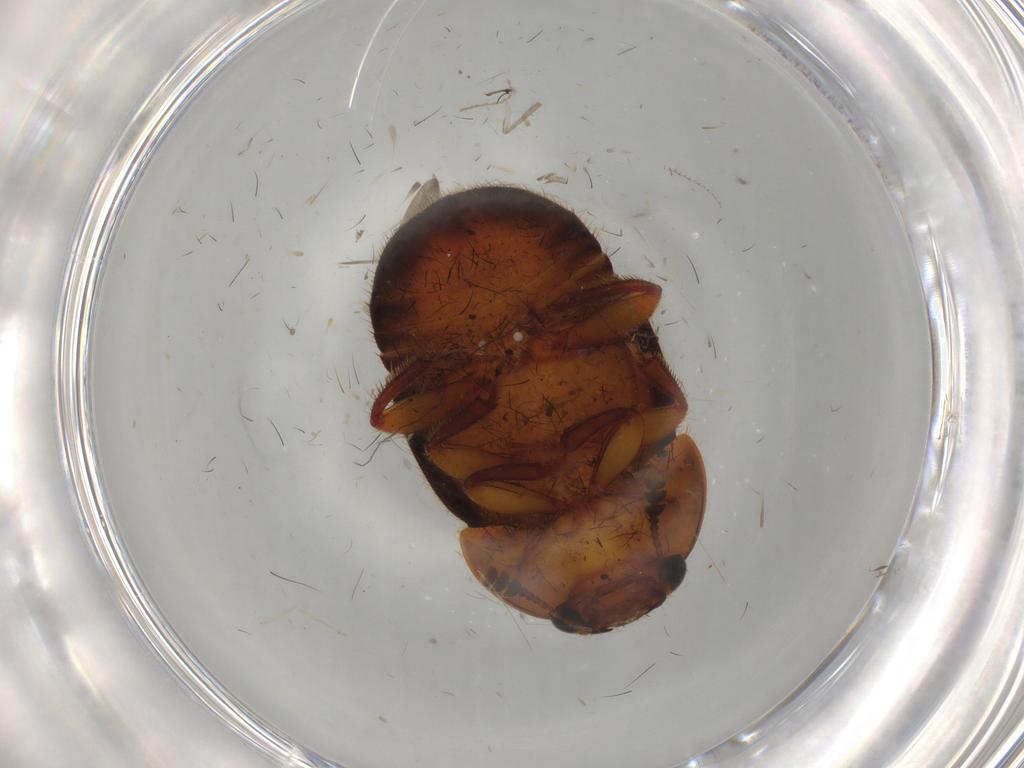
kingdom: Animalia
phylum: Arthropoda
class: Insecta
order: Coleoptera
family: Nitidulidae
